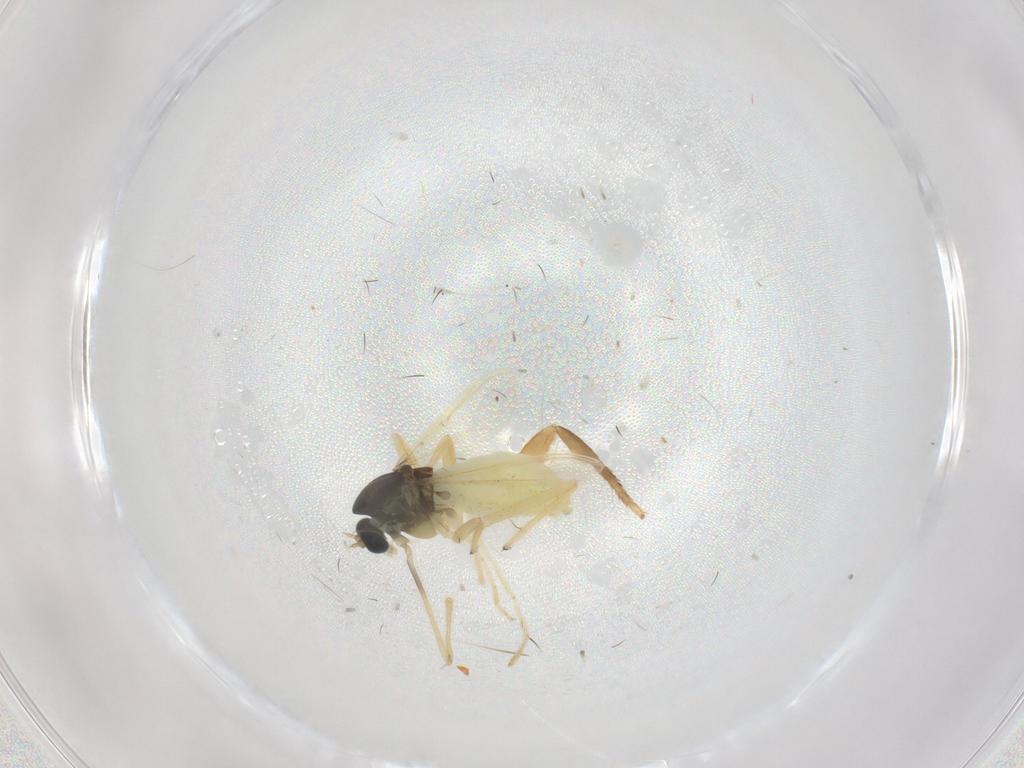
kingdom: Animalia
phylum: Arthropoda
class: Insecta
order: Diptera
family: Chironomidae
